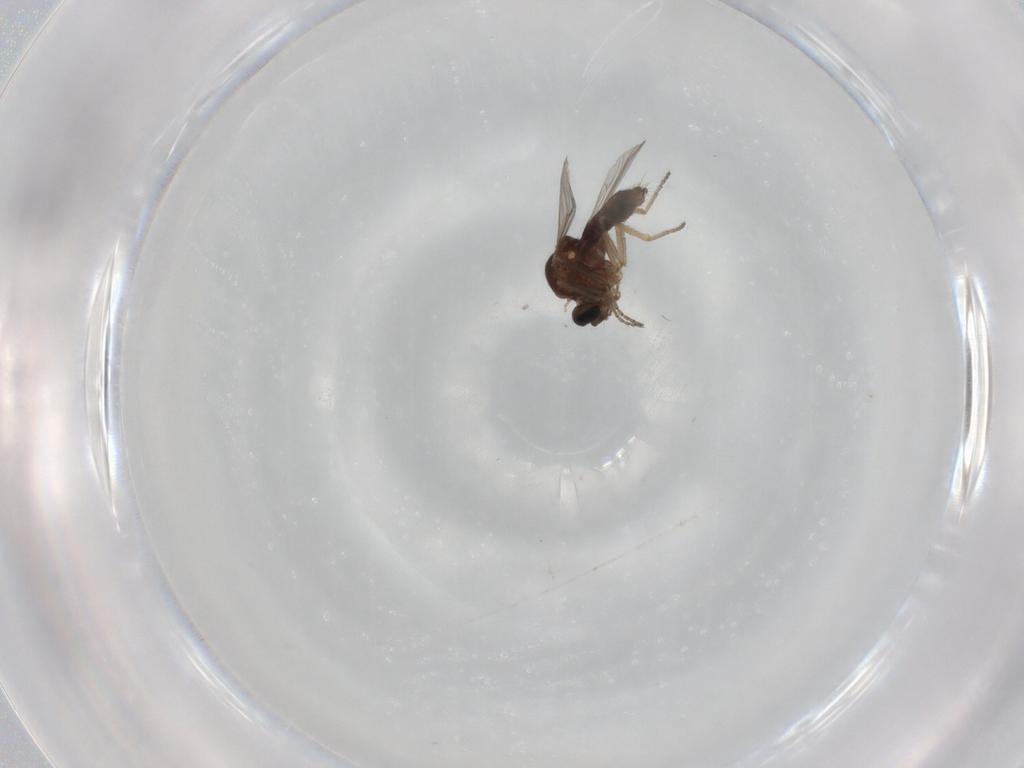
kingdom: Animalia
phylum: Arthropoda
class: Insecta
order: Diptera
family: Ceratopogonidae
